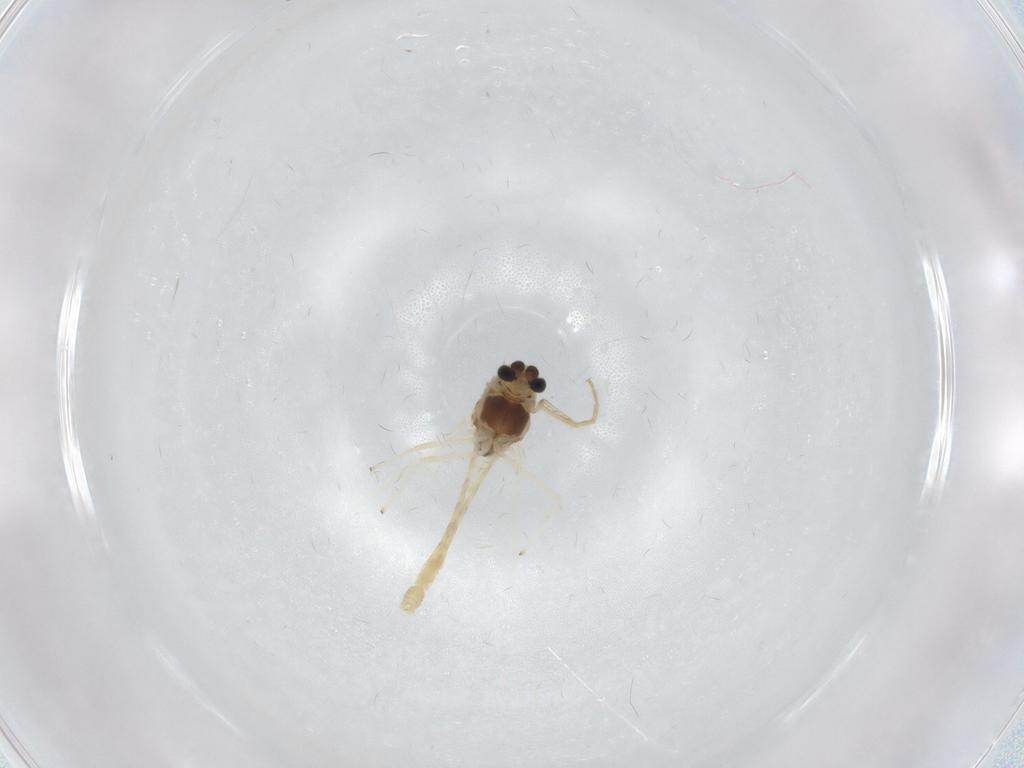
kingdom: Animalia
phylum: Arthropoda
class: Insecta
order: Diptera
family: Chironomidae
